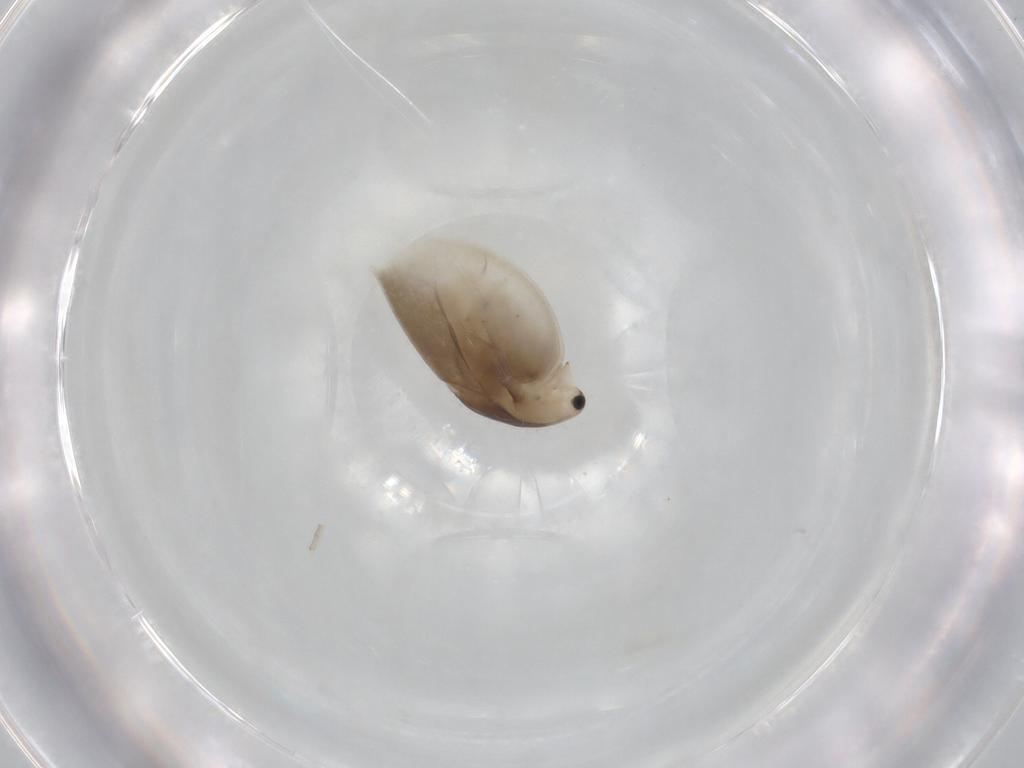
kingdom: Animalia
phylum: Arthropoda
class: Branchiopoda
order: Diplostraca
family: Daphniidae
